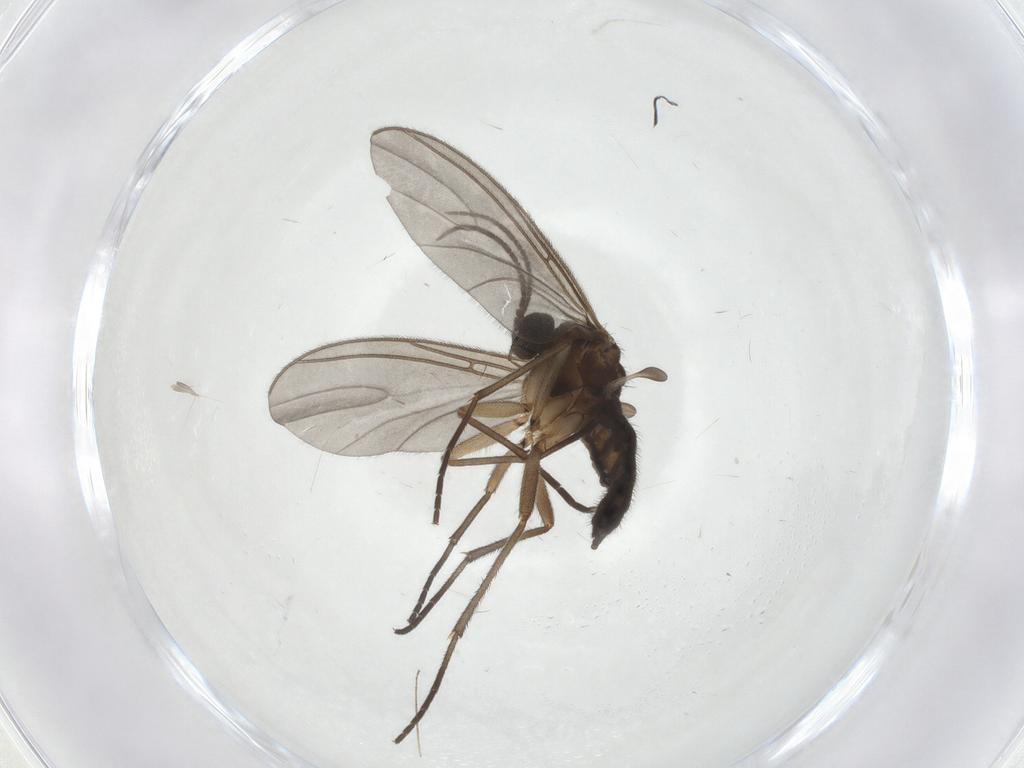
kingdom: Animalia
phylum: Arthropoda
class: Insecta
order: Diptera
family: Sciaridae
